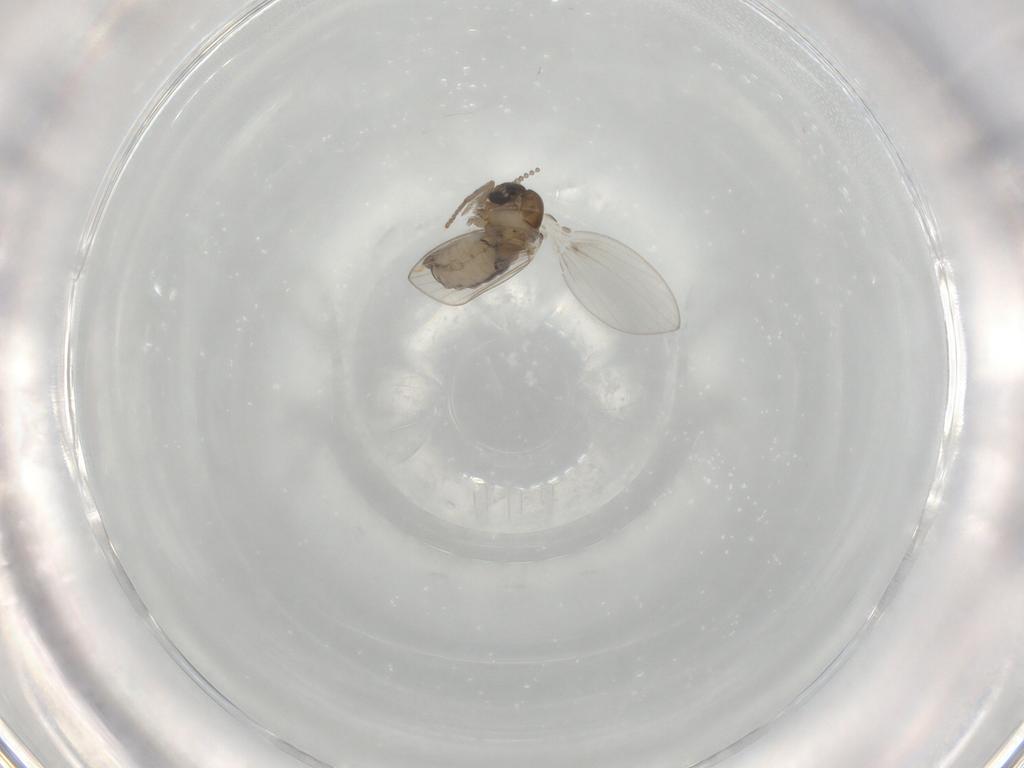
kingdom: Animalia
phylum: Arthropoda
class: Insecta
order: Diptera
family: Psychodidae
